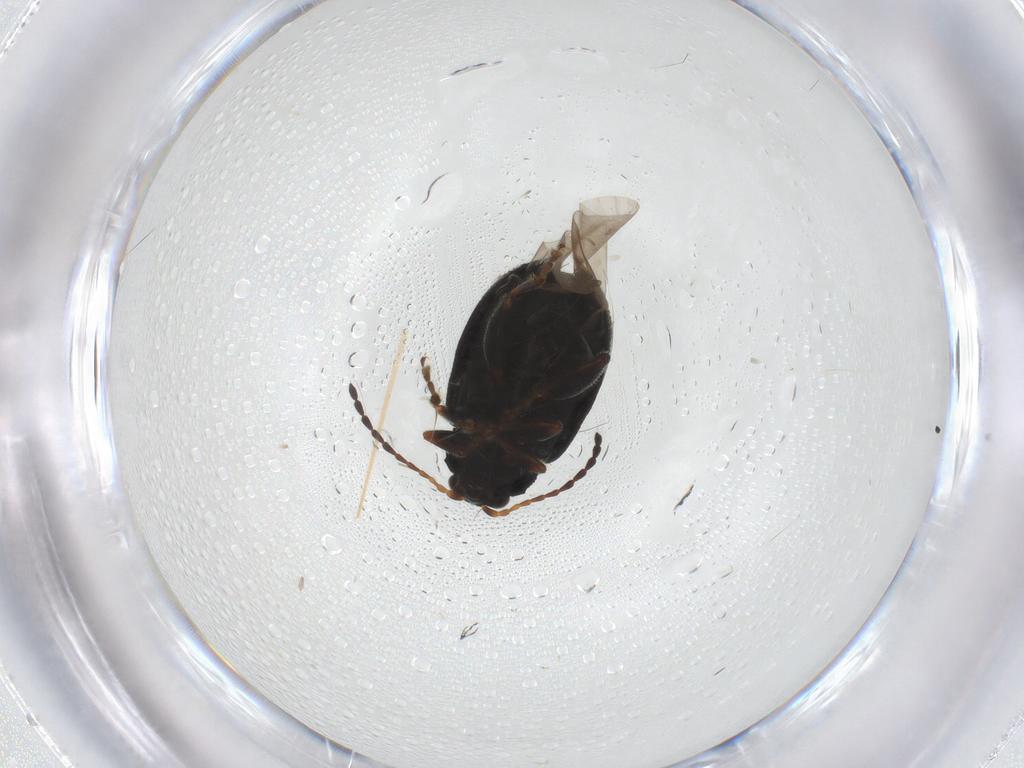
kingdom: Animalia
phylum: Arthropoda
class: Insecta
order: Coleoptera
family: Chrysomelidae
